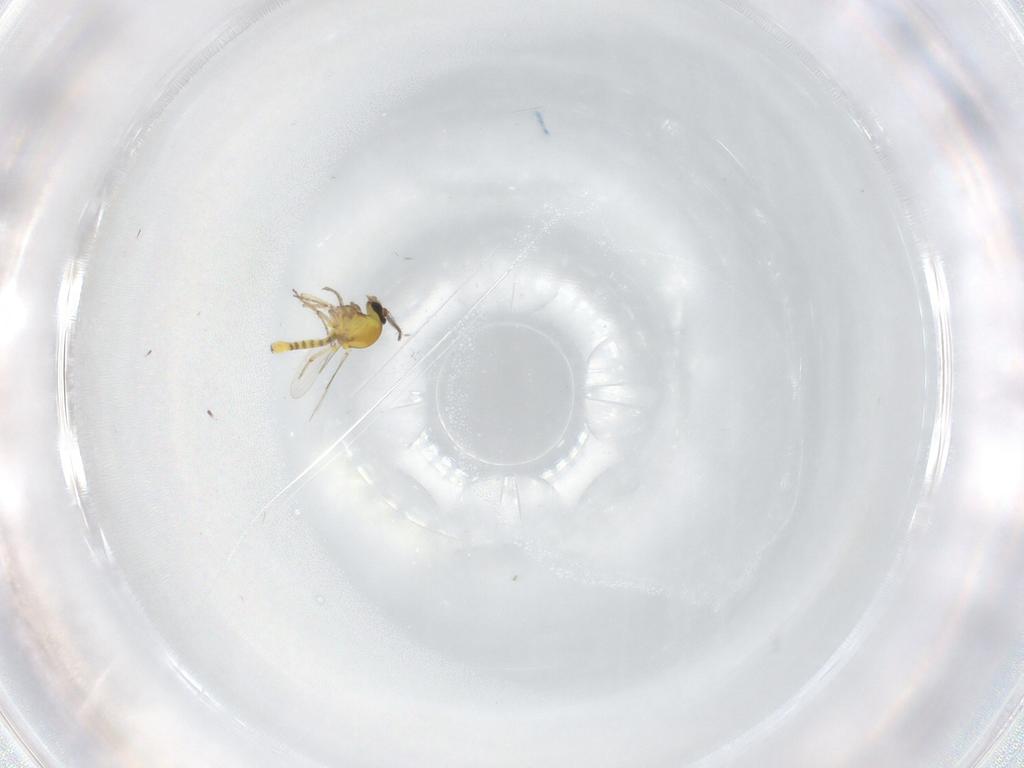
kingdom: Animalia
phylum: Arthropoda
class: Insecta
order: Diptera
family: Ceratopogonidae
